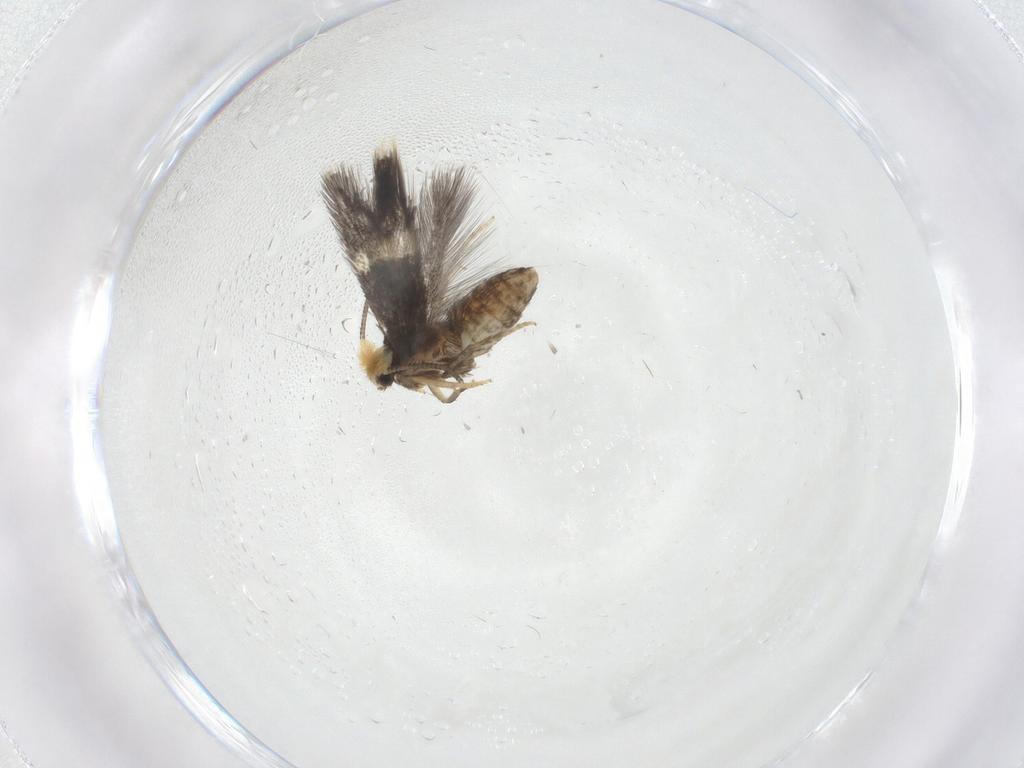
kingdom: Animalia
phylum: Arthropoda
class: Insecta
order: Lepidoptera
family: Nepticulidae
